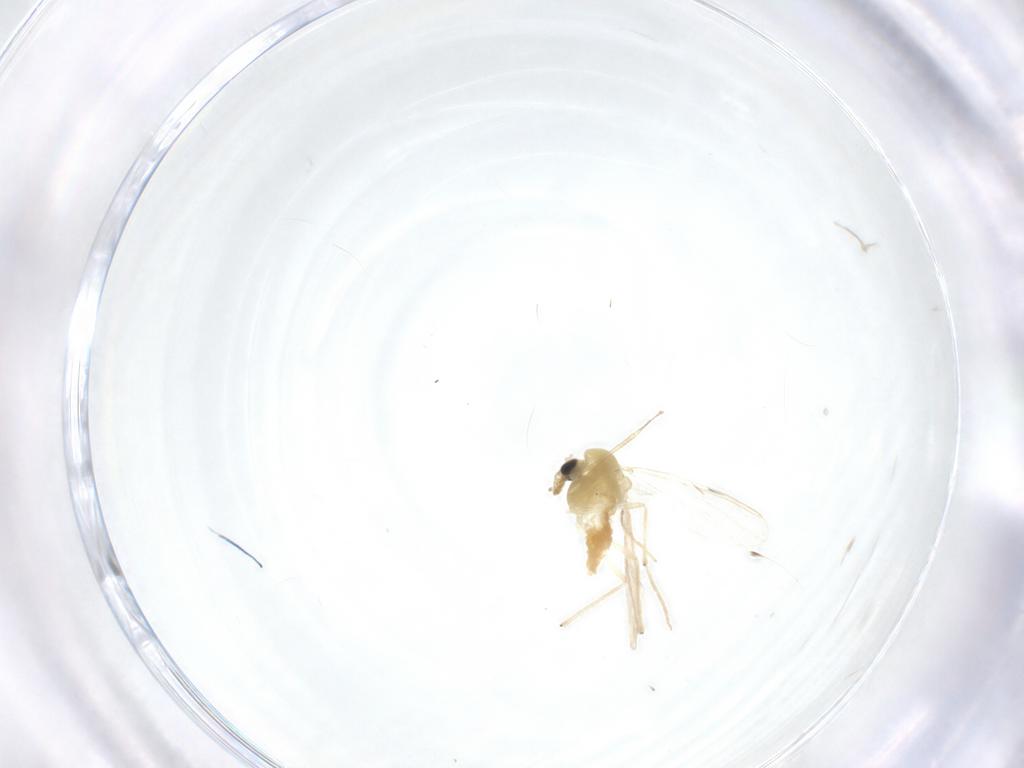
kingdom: Animalia
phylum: Arthropoda
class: Insecta
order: Diptera
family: Chironomidae
